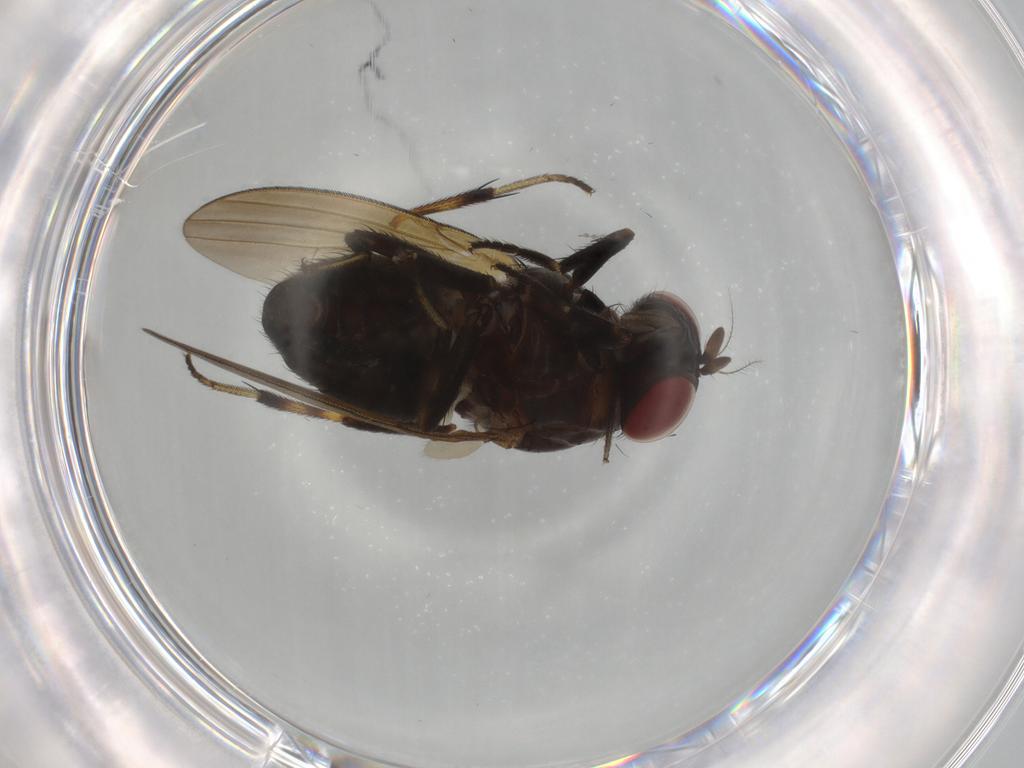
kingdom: Animalia
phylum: Arthropoda
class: Insecta
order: Diptera
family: Lauxaniidae
